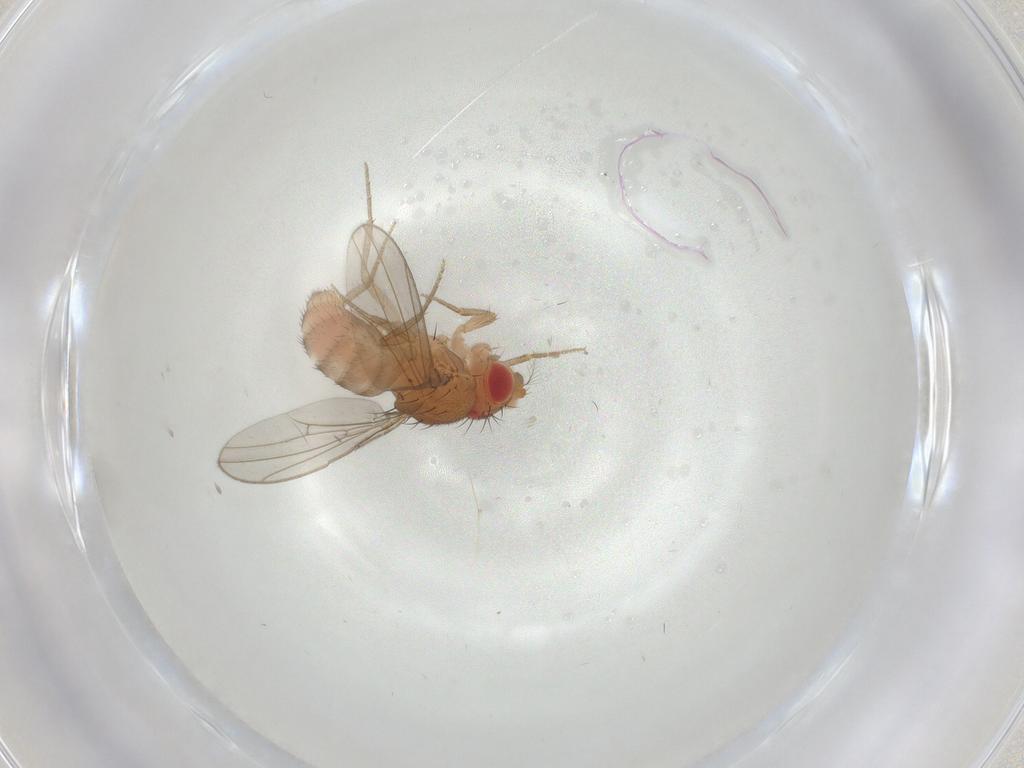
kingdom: Animalia
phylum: Arthropoda
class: Insecta
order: Diptera
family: Drosophilidae
